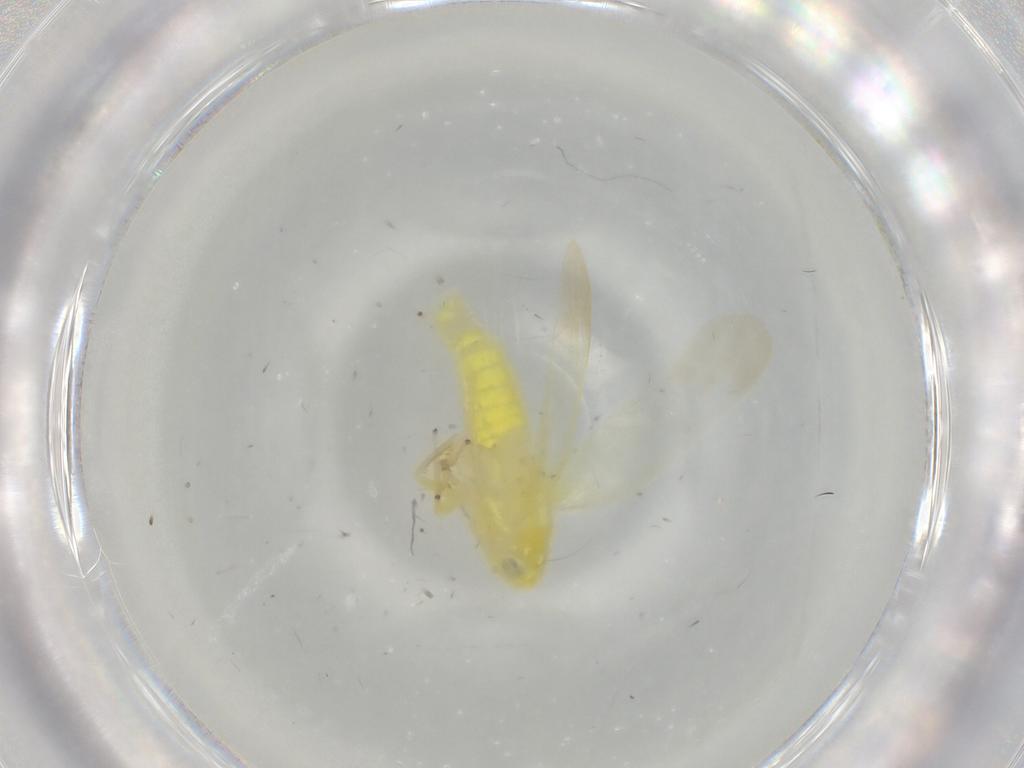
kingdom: Animalia
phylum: Arthropoda
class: Insecta
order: Hemiptera
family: Cicadellidae
